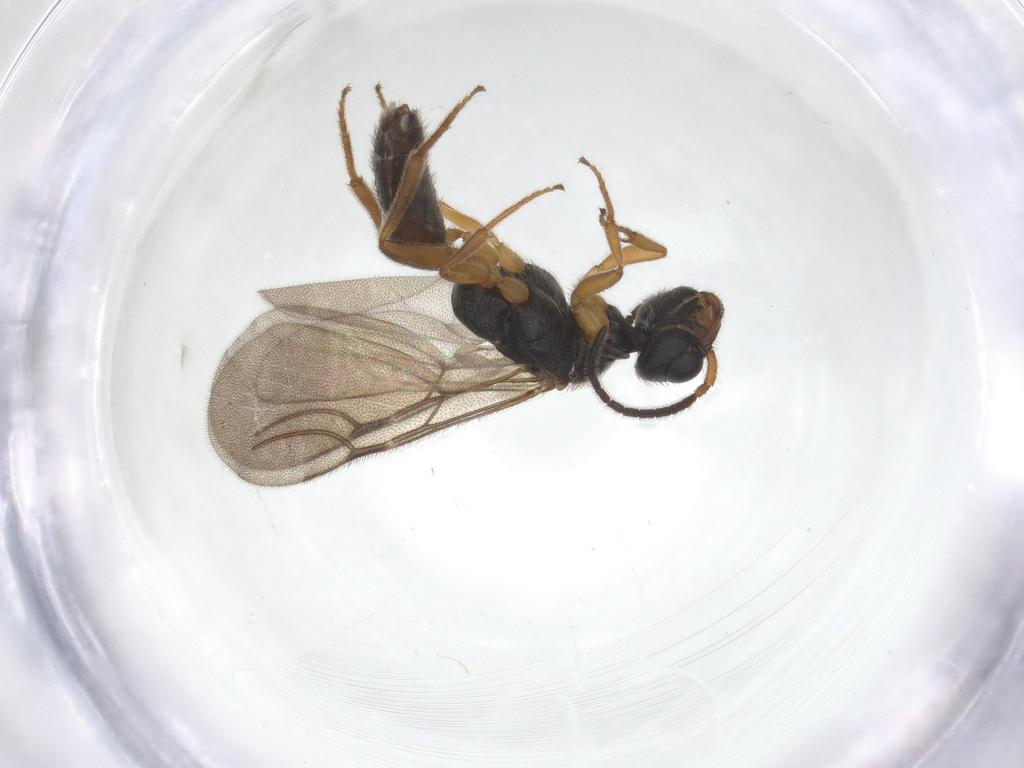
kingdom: Animalia
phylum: Arthropoda
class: Insecta
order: Hymenoptera
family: Bethylidae
